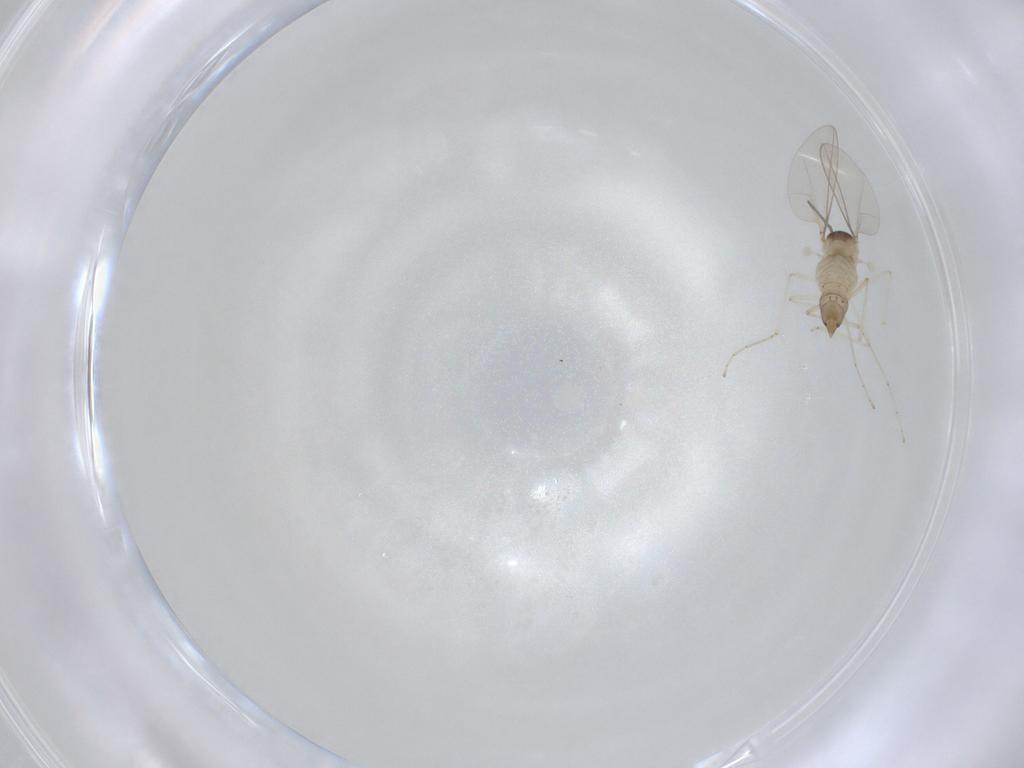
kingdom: Animalia
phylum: Arthropoda
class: Insecta
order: Diptera
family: Cecidomyiidae
